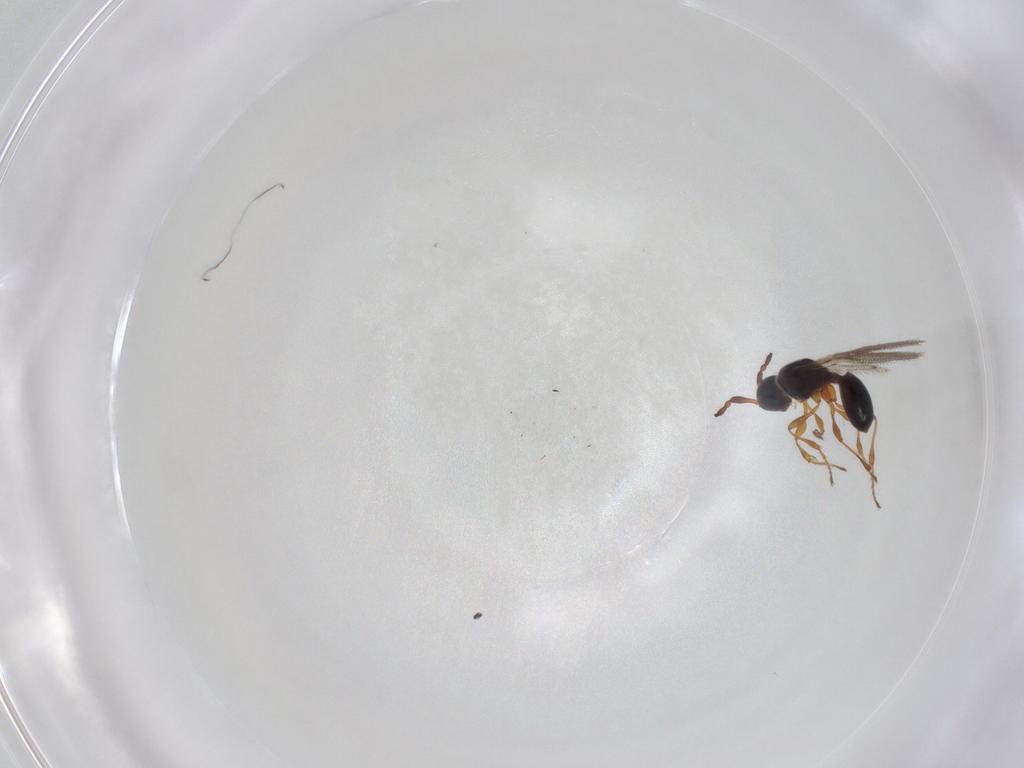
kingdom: Animalia
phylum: Arthropoda
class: Insecta
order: Hymenoptera
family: Diapriidae
